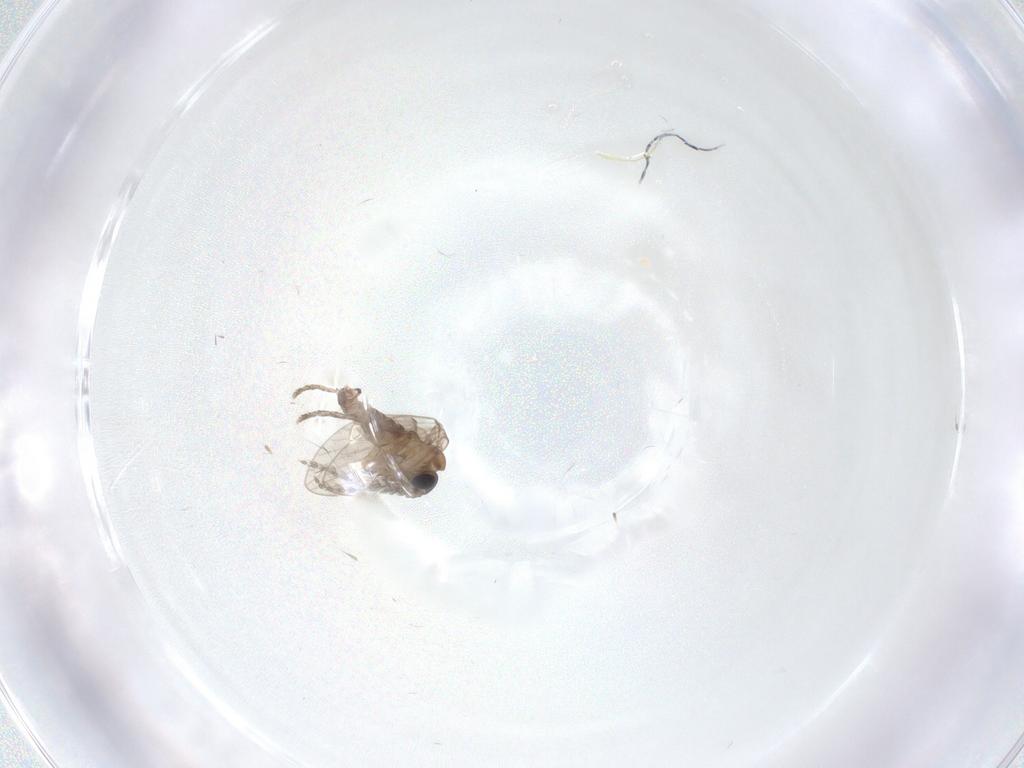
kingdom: Animalia
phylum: Arthropoda
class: Insecta
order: Diptera
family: Psychodidae
